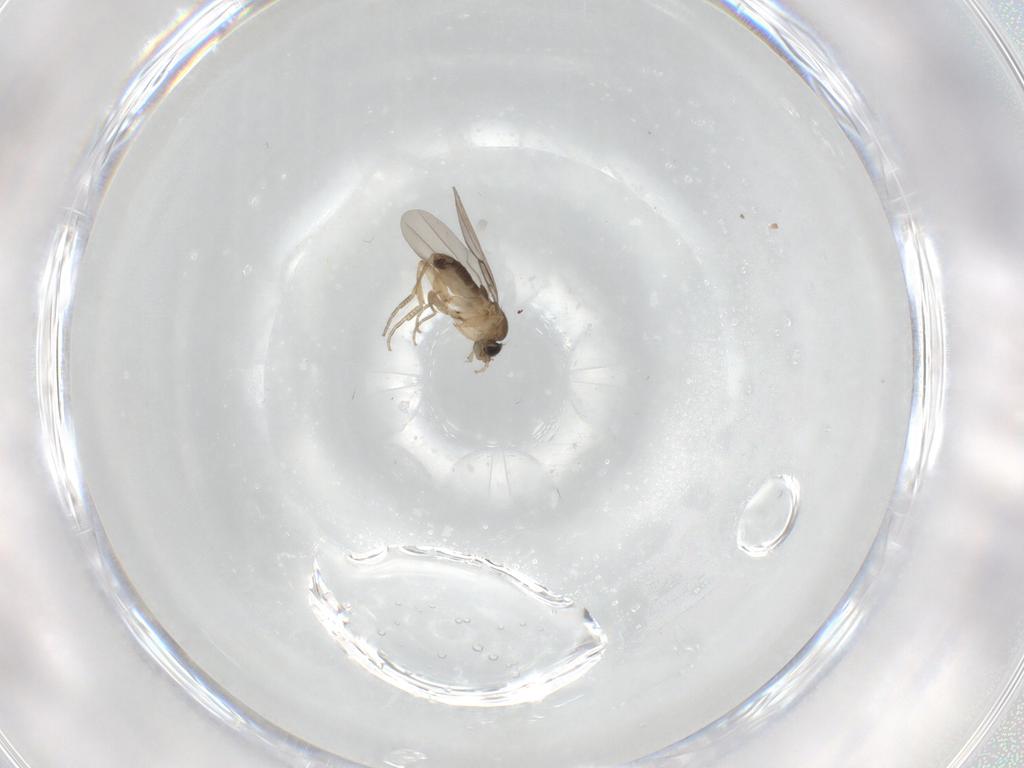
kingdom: Animalia
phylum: Arthropoda
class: Insecta
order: Diptera
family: Phoridae
